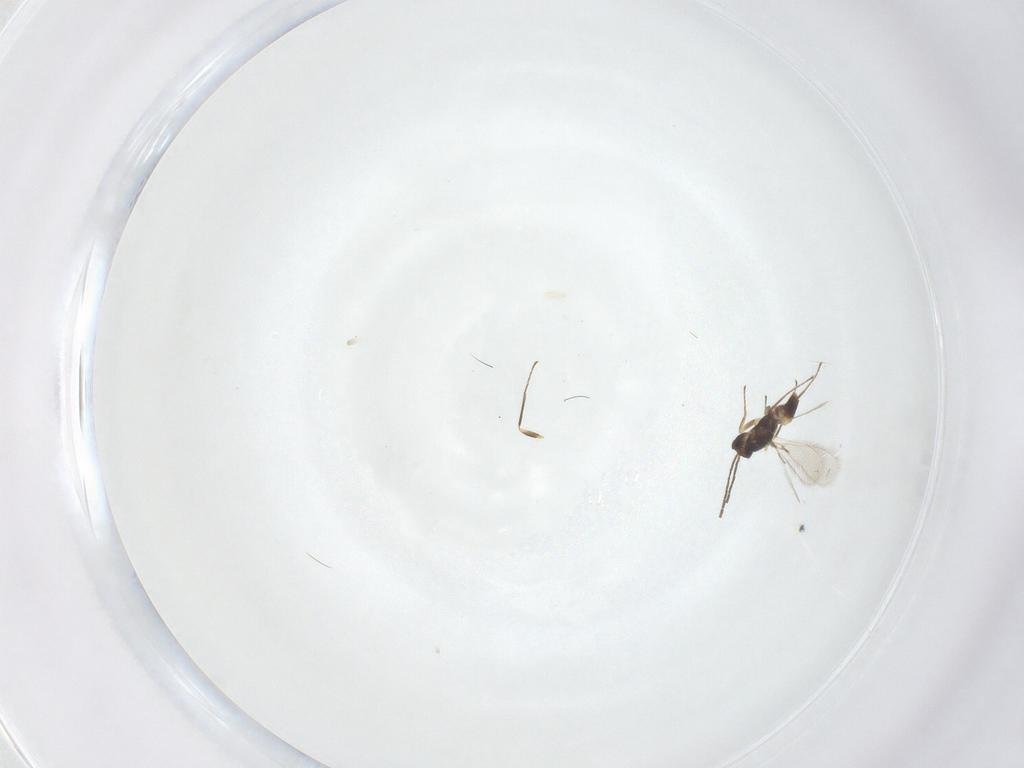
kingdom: Animalia
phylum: Arthropoda
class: Insecta
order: Hymenoptera
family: Mymaridae
